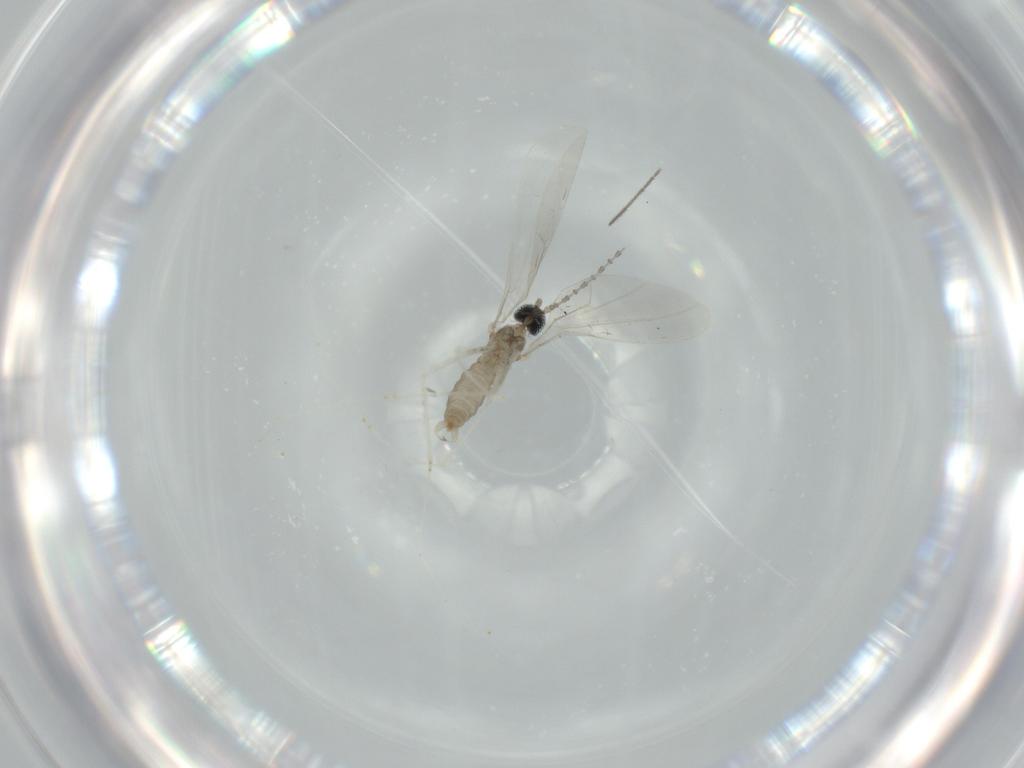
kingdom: Animalia
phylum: Arthropoda
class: Insecta
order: Diptera
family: Cecidomyiidae
